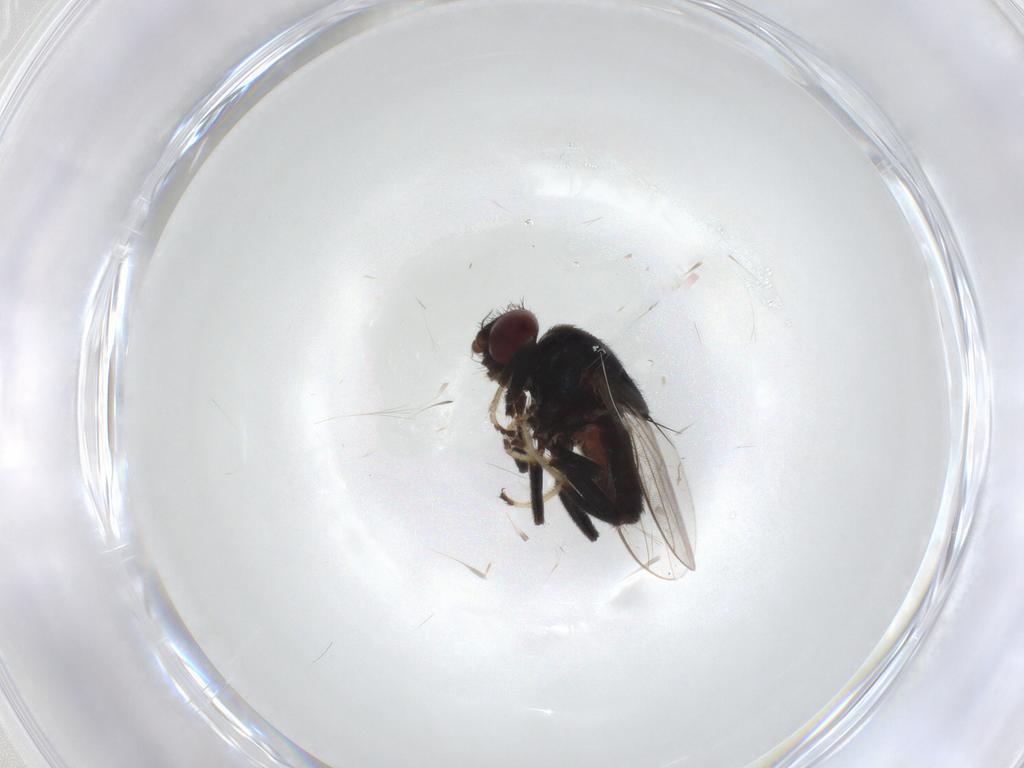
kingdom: Animalia
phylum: Arthropoda
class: Insecta
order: Diptera
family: Chloropidae
